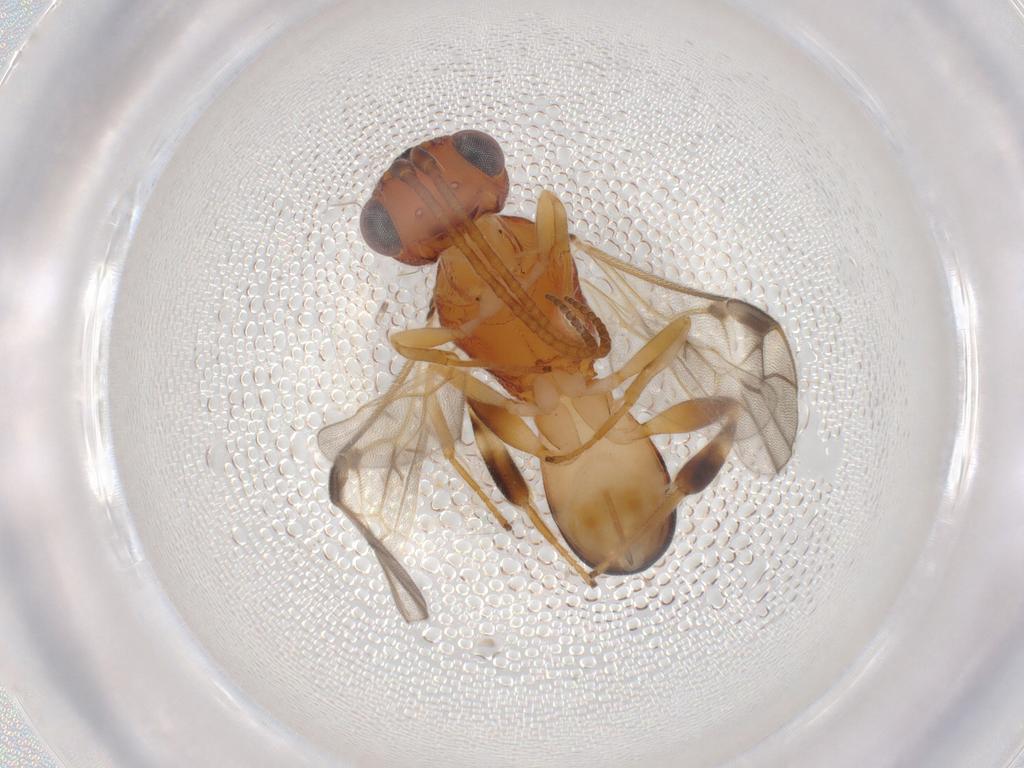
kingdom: Animalia
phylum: Arthropoda
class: Insecta
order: Hymenoptera
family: Braconidae
